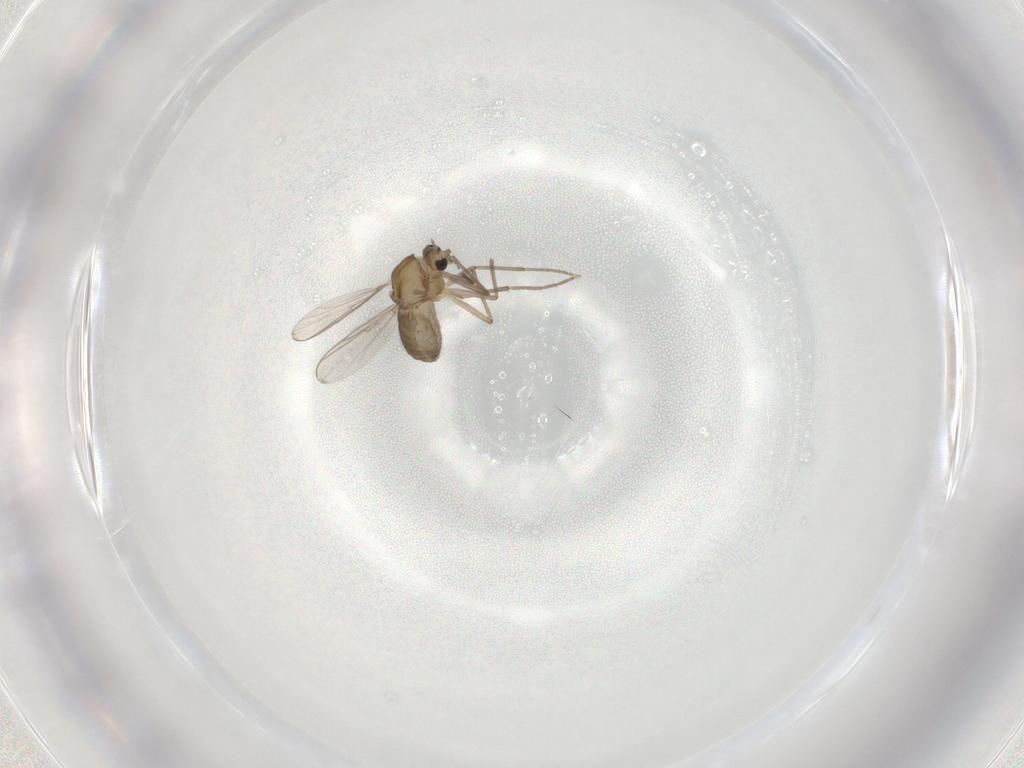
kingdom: Animalia
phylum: Arthropoda
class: Insecta
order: Diptera
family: Chironomidae
